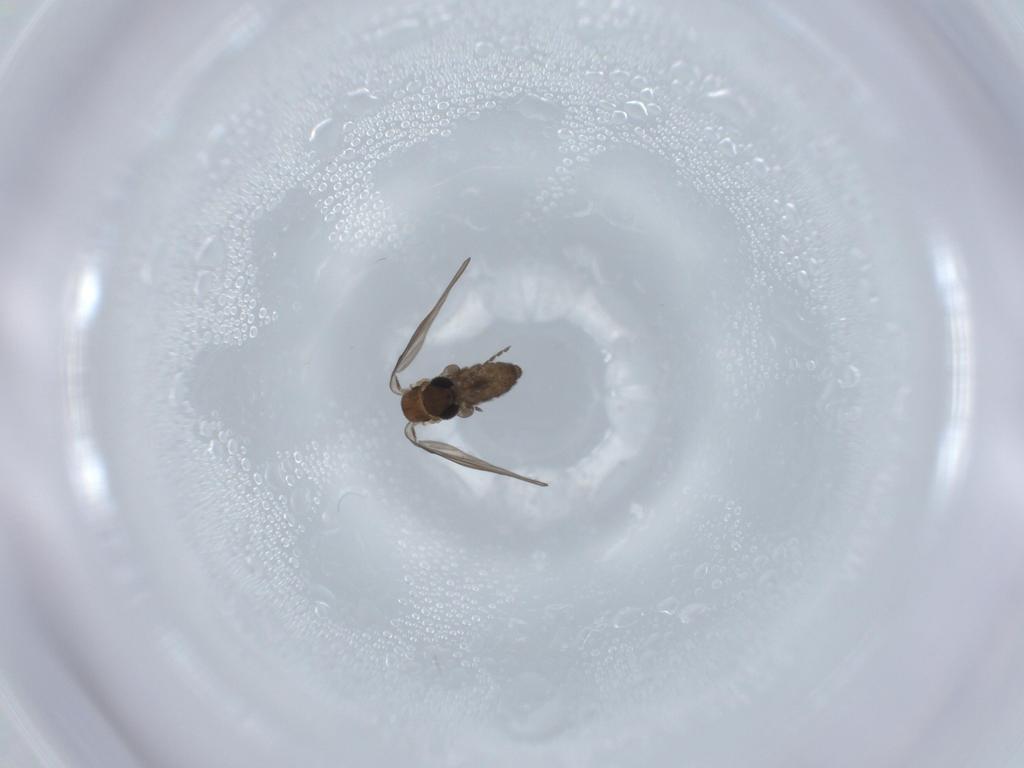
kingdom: Animalia
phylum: Arthropoda
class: Insecta
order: Diptera
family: Psychodidae
